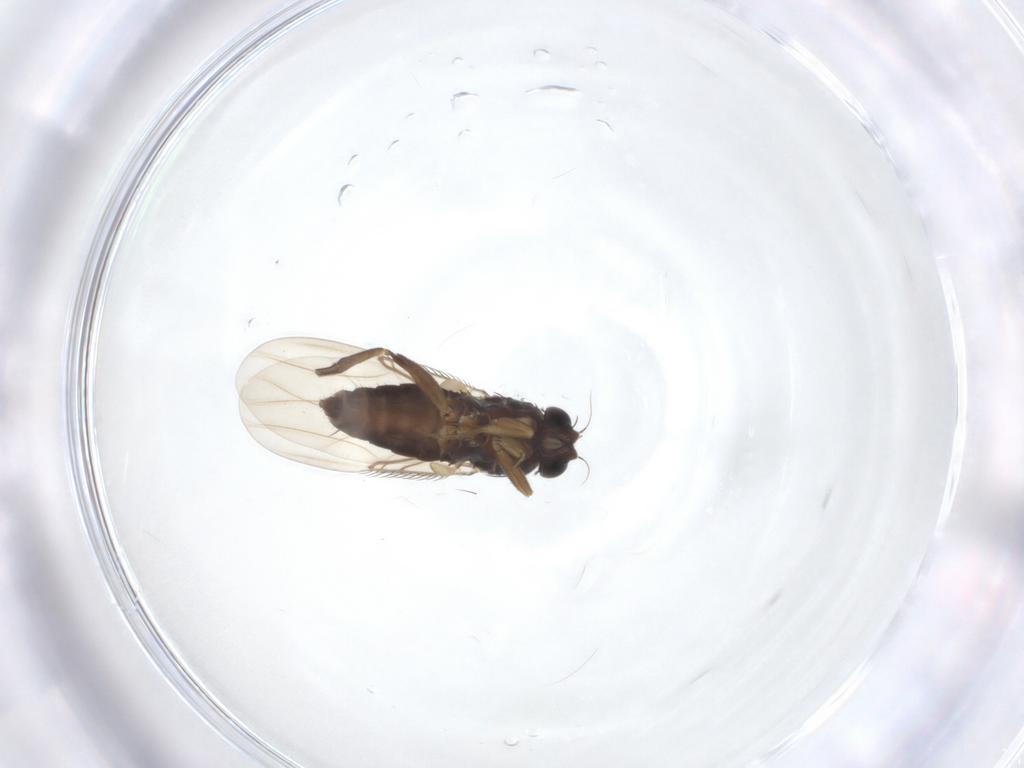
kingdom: Animalia
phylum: Arthropoda
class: Insecta
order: Diptera
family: Phoridae
